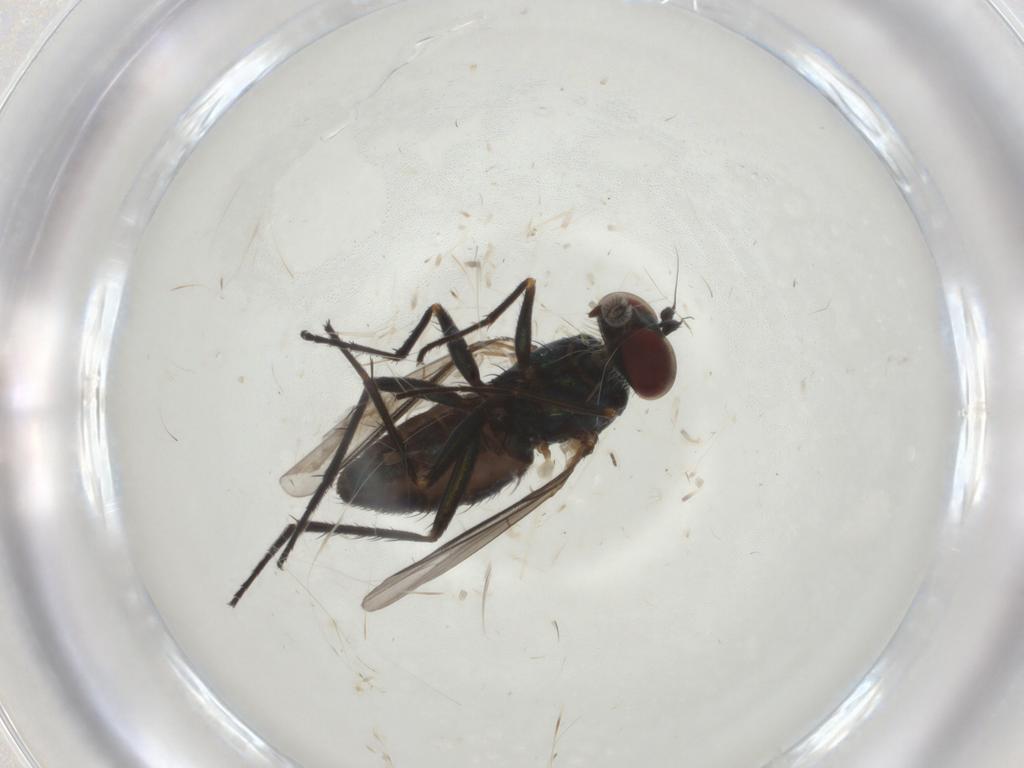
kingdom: Animalia
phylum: Arthropoda
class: Insecta
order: Diptera
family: Dolichopodidae
